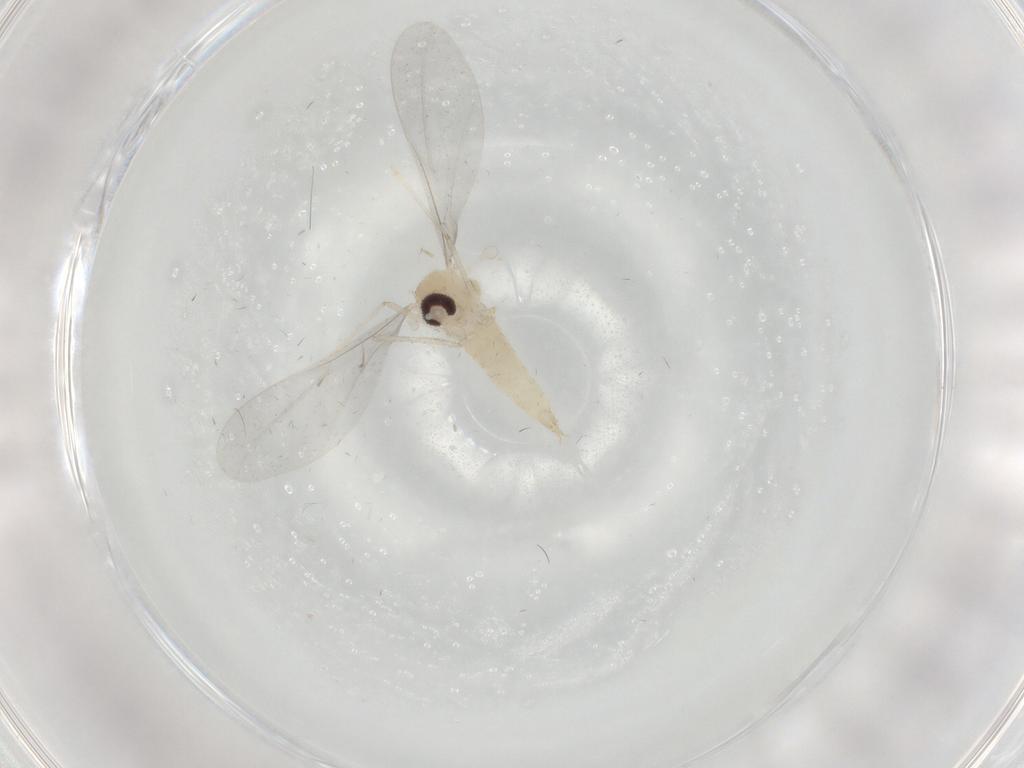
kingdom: Animalia
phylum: Arthropoda
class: Insecta
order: Diptera
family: Cecidomyiidae
